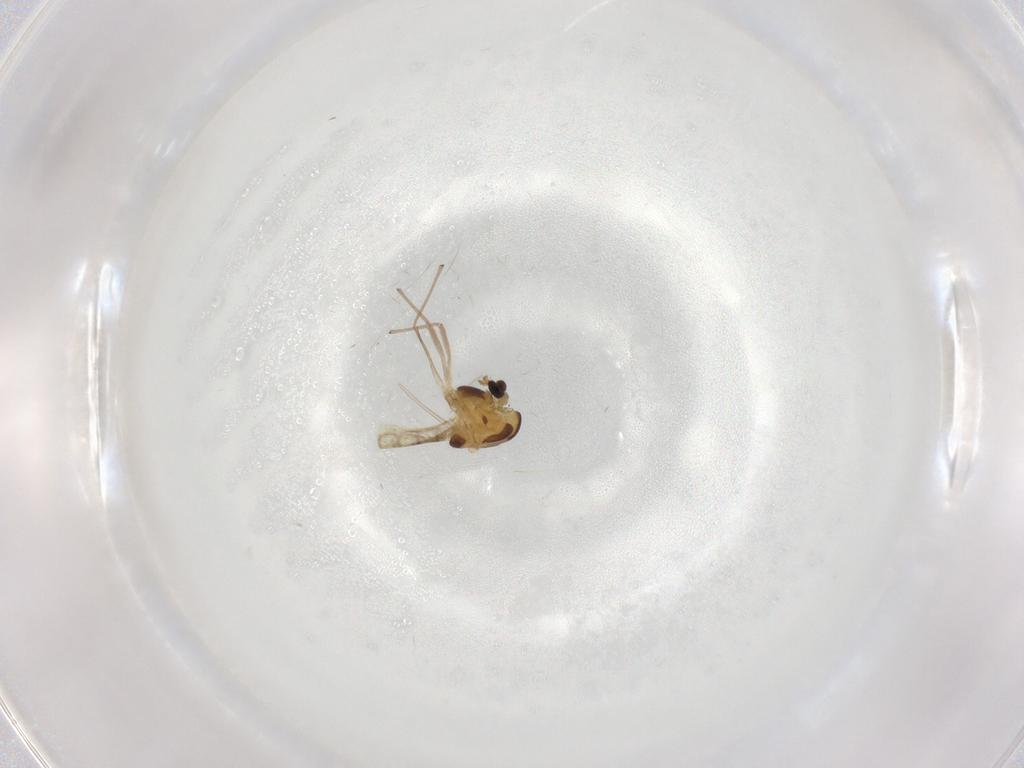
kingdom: Animalia
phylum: Arthropoda
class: Insecta
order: Diptera
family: Chironomidae
